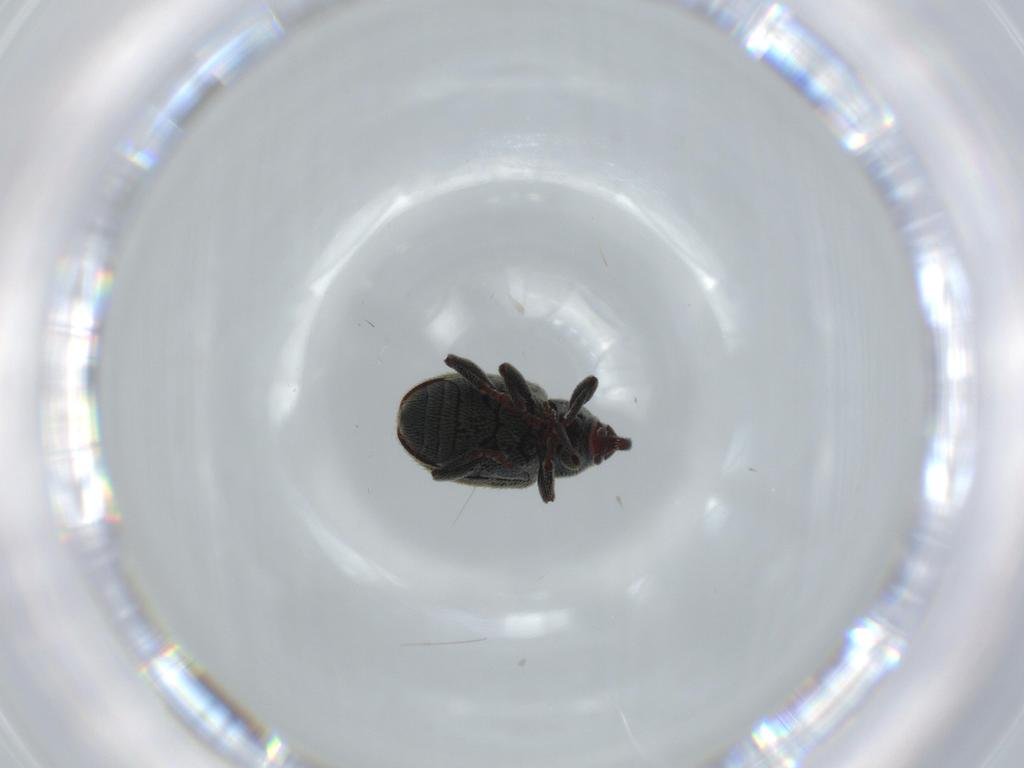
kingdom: Animalia
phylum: Arthropoda
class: Insecta
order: Coleoptera
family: Curculionidae
